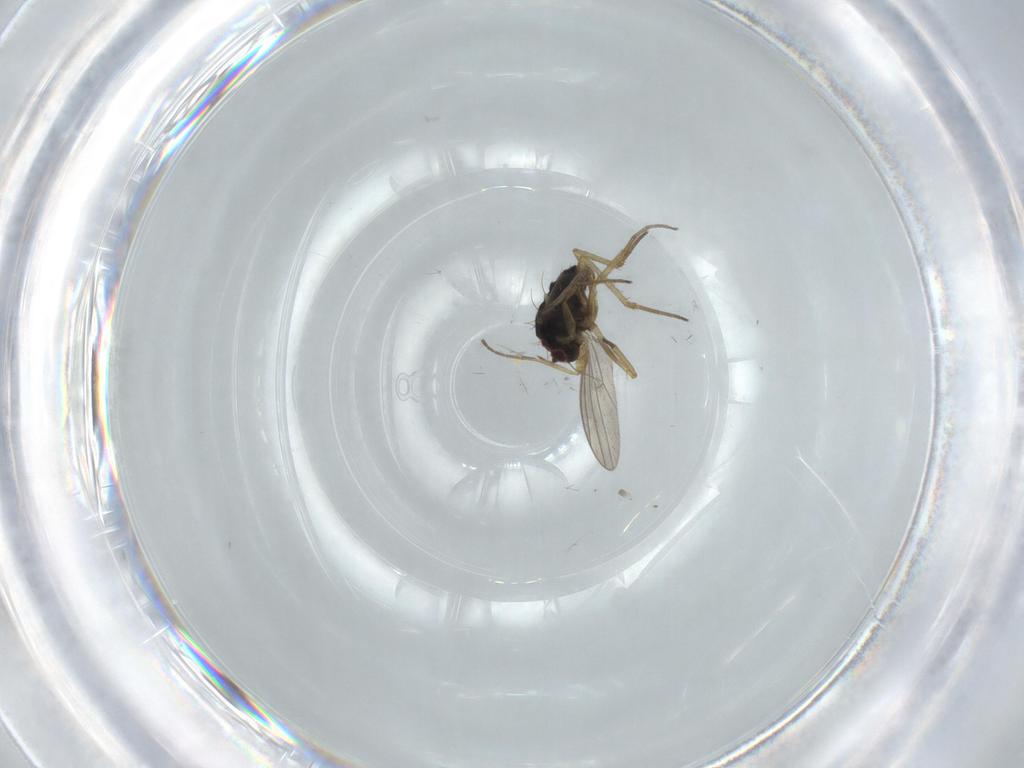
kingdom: Animalia
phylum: Arthropoda
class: Insecta
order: Diptera
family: Dolichopodidae
